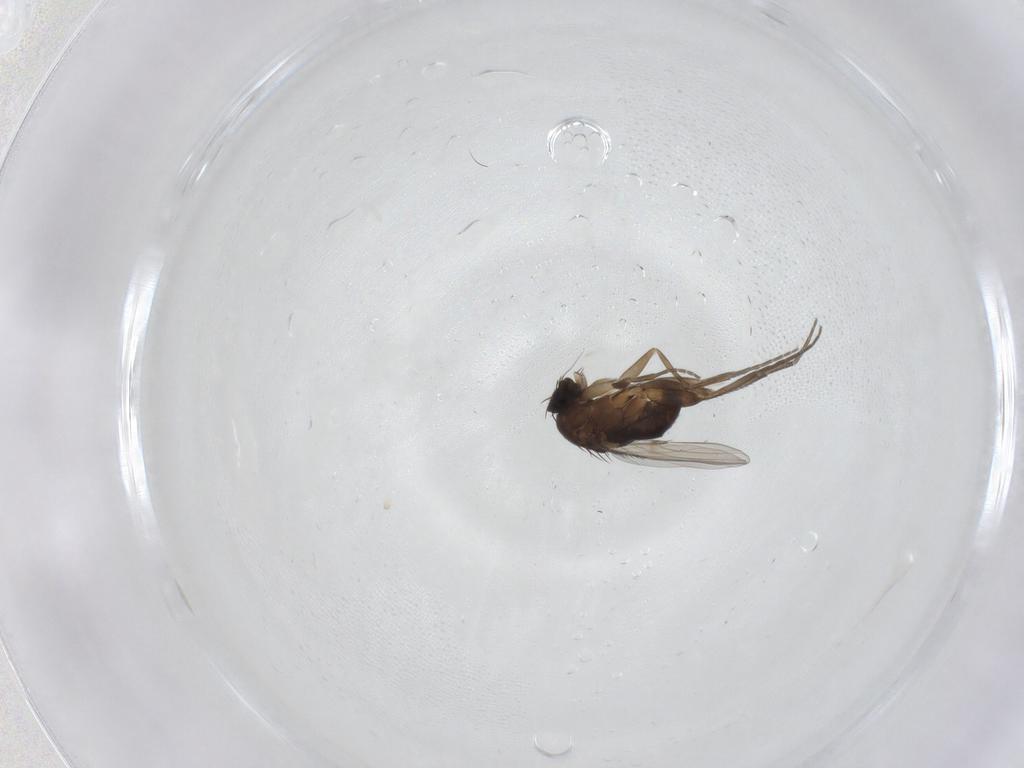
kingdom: Animalia
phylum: Arthropoda
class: Insecta
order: Diptera
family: Phoridae
